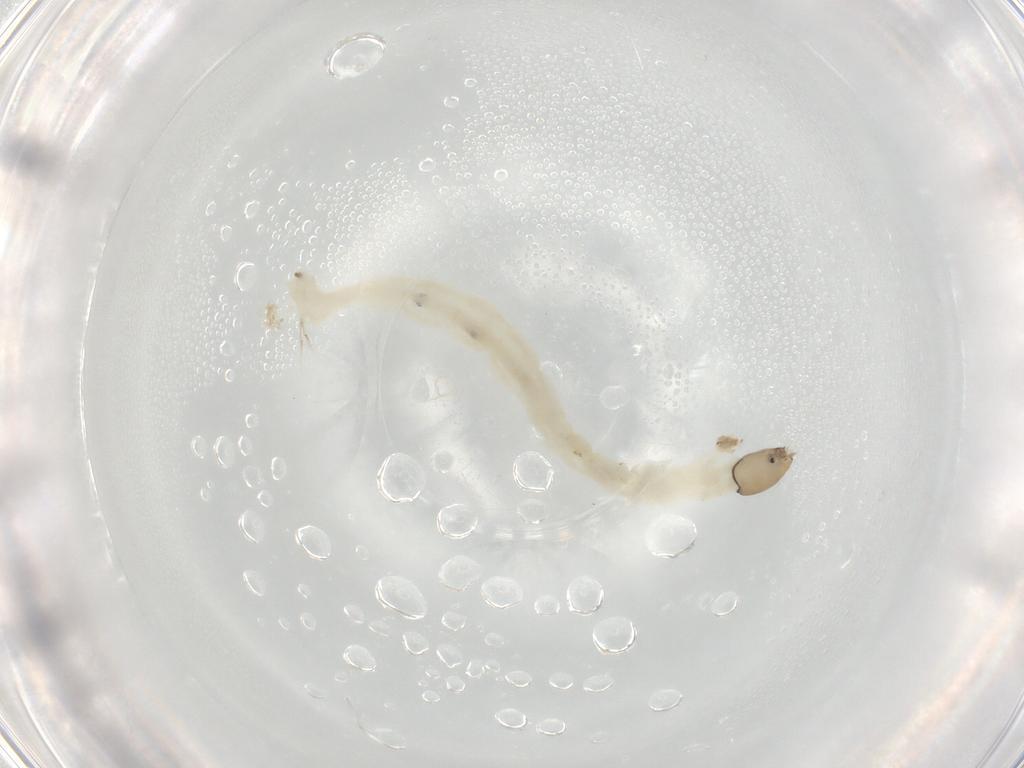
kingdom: Animalia
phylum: Arthropoda
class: Insecta
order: Diptera
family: Chironomidae
